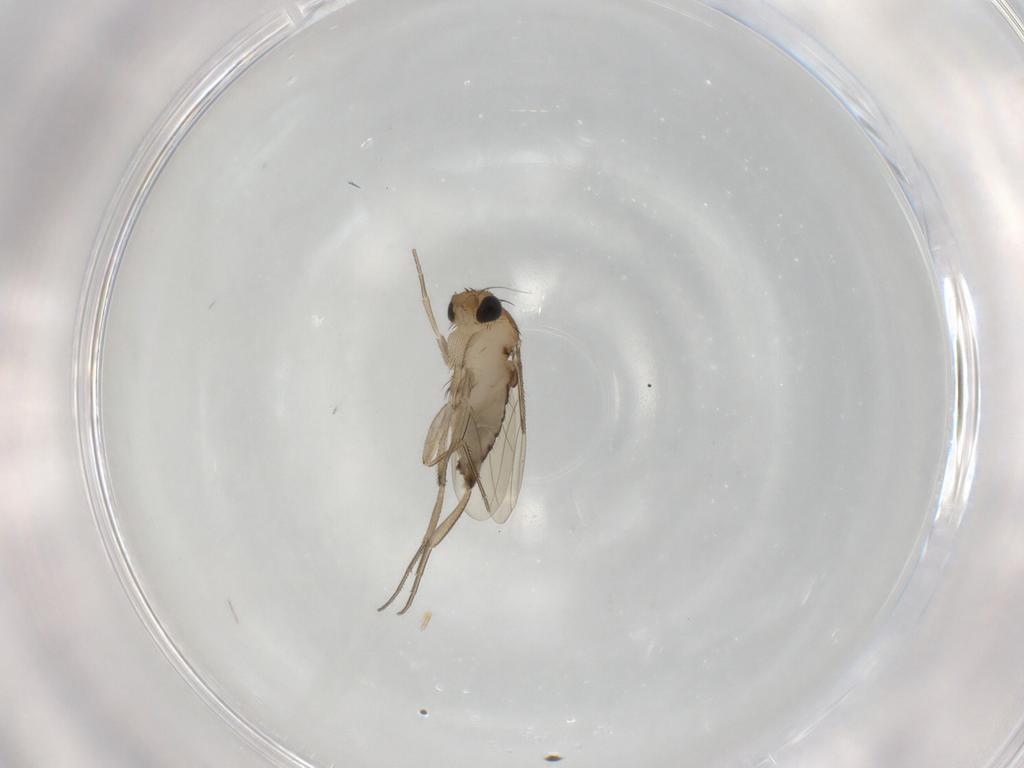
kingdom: Animalia
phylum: Arthropoda
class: Insecta
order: Diptera
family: Phoridae
